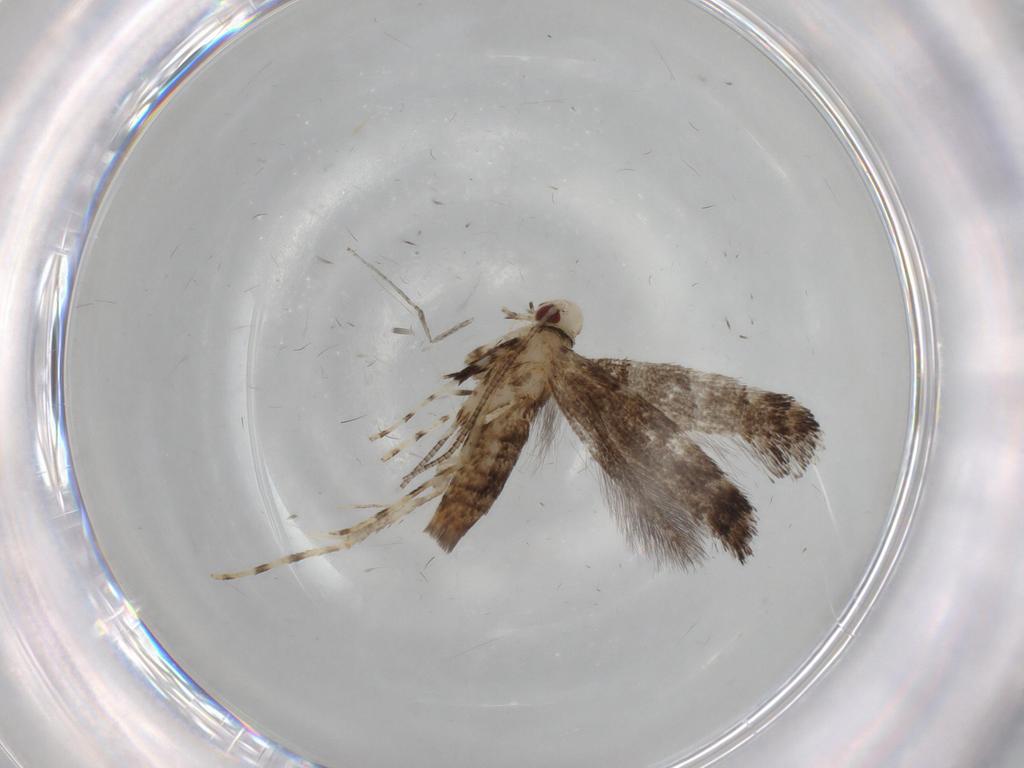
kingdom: Animalia
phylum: Arthropoda
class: Insecta
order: Lepidoptera
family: Gracillariidae
